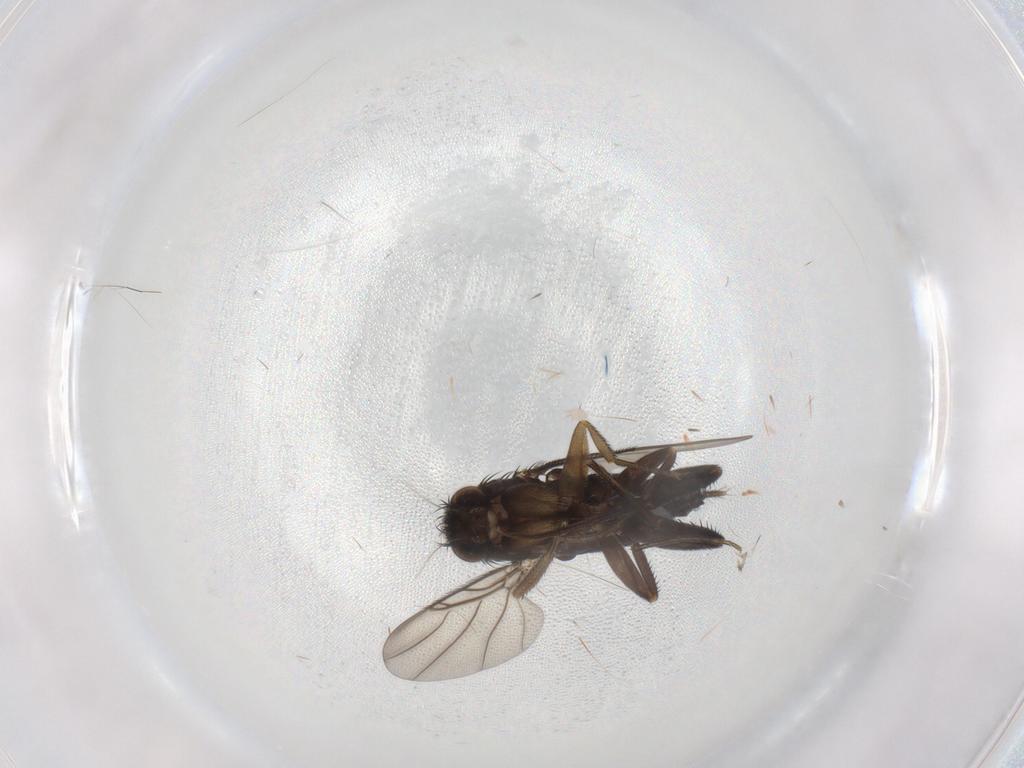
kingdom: Animalia
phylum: Arthropoda
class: Insecta
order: Diptera
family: Phoridae
